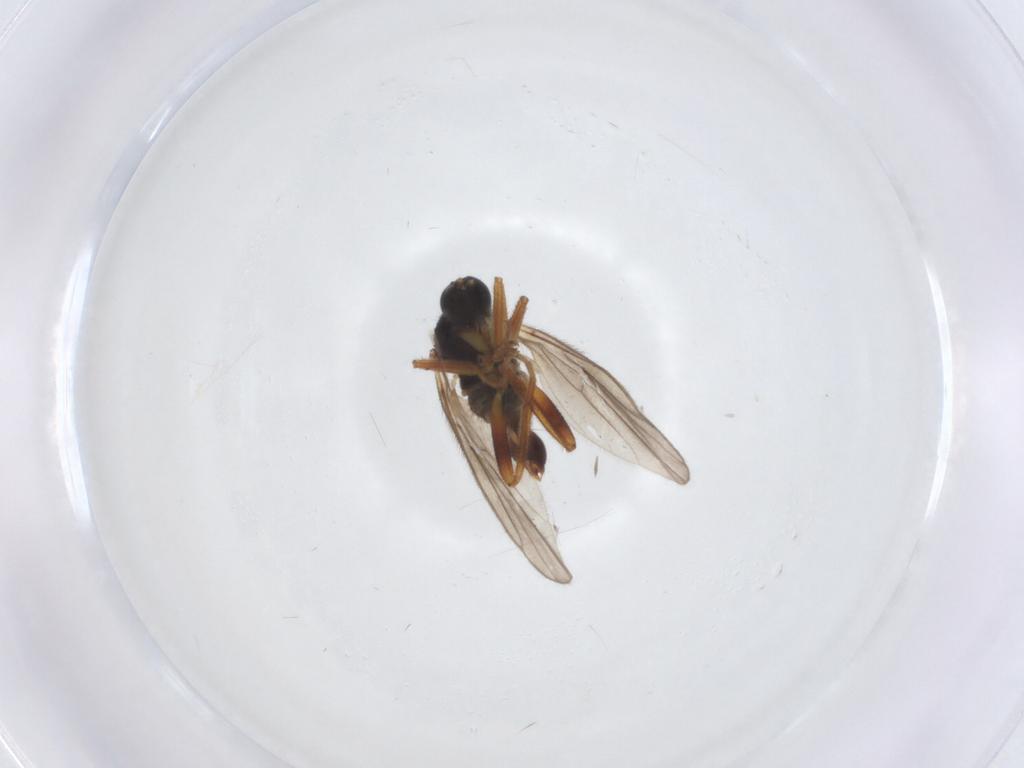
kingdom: Animalia
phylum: Arthropoda
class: Insecta
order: Diptera
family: Hybotidae
